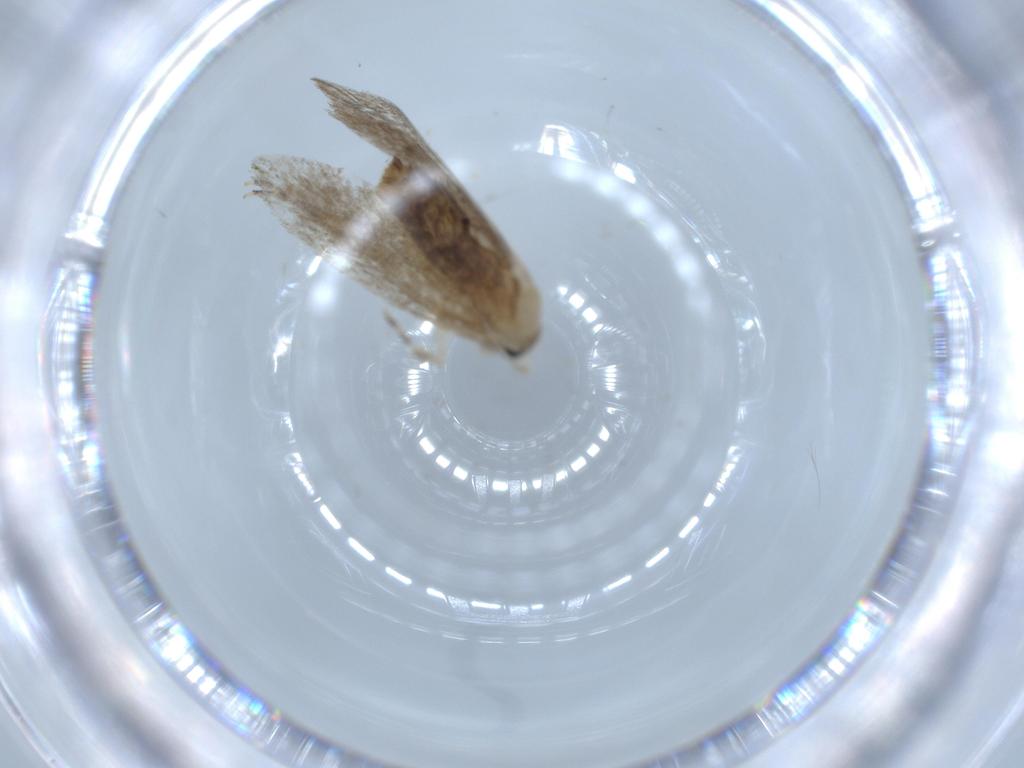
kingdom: Animalia
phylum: Arthropoda
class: Insecta
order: Lepidoptera
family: Tineidae
